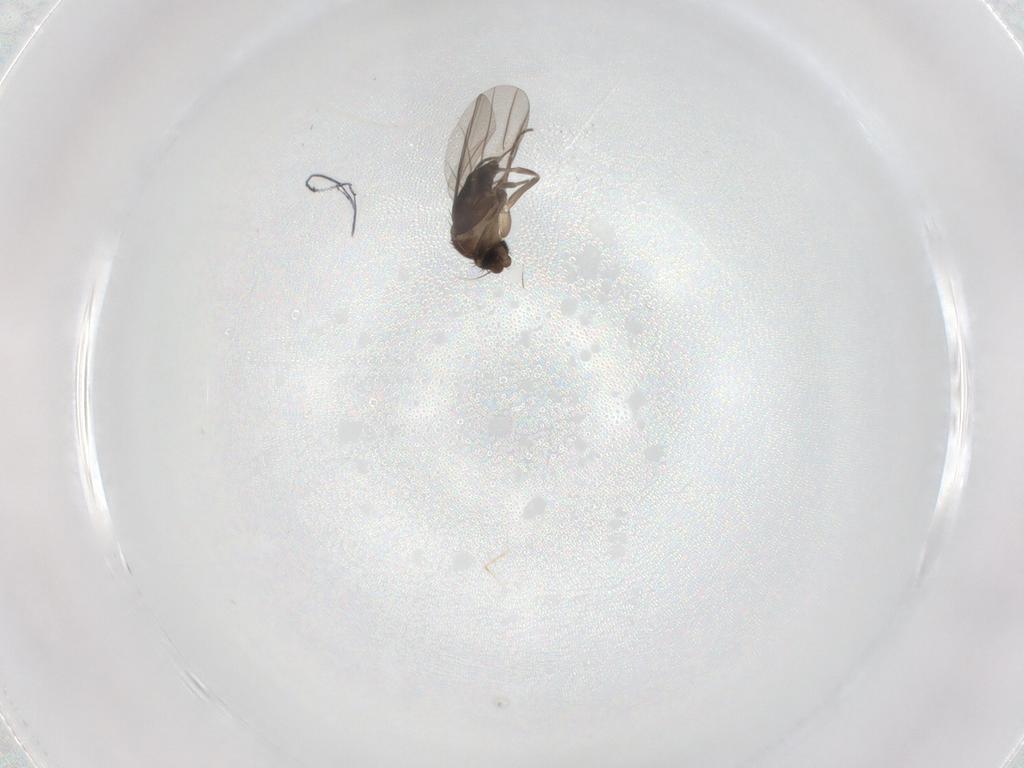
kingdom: Animalia
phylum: Arthropoda
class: Insecta
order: Diptera
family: Phoridae
